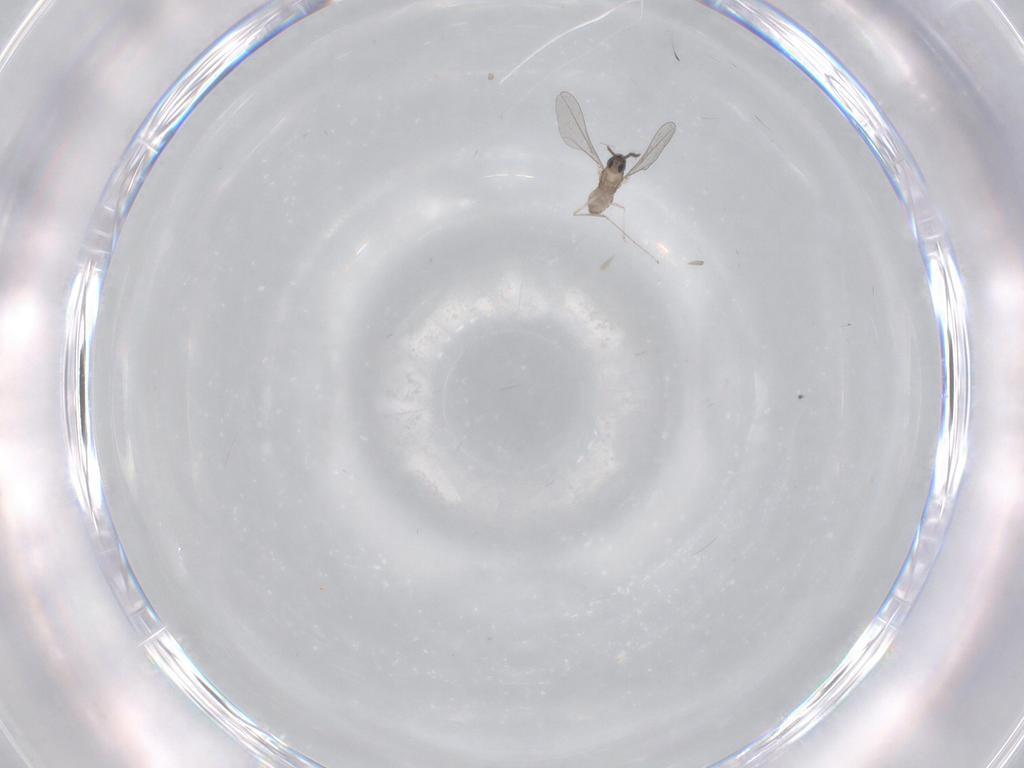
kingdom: Animalia
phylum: Arthropoda
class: Insecta
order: Diptera
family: Cecidomyiidae
